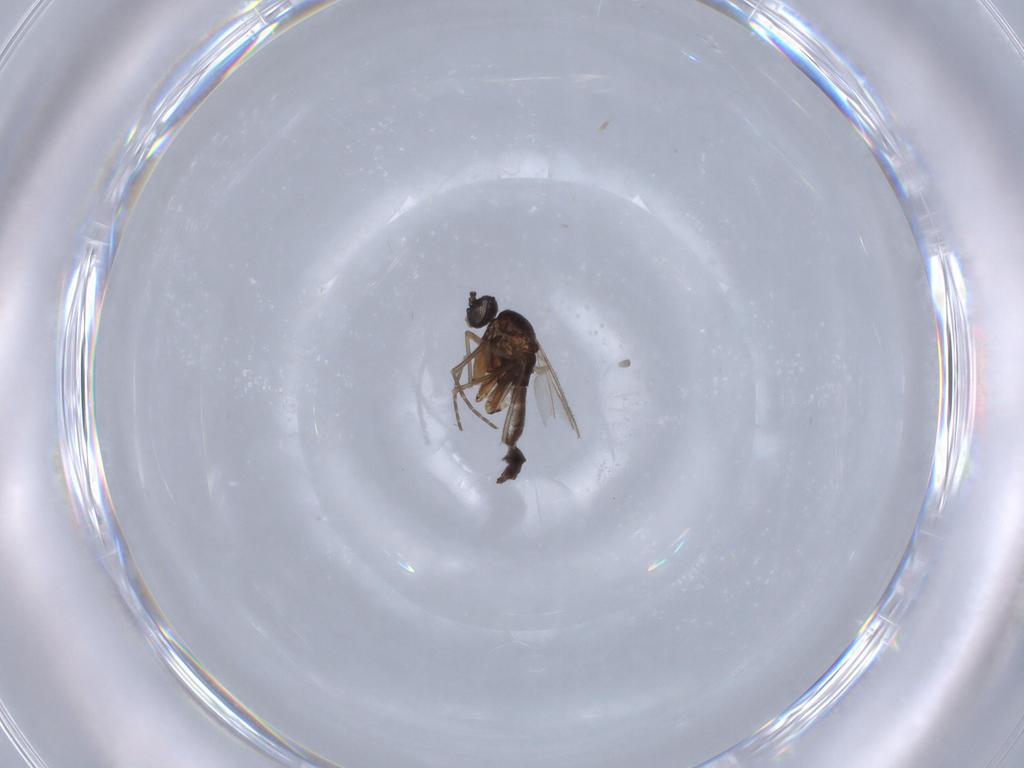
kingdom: Animalia
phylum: Arthropoda
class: Insecta
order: Diptera
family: Sciaridae
